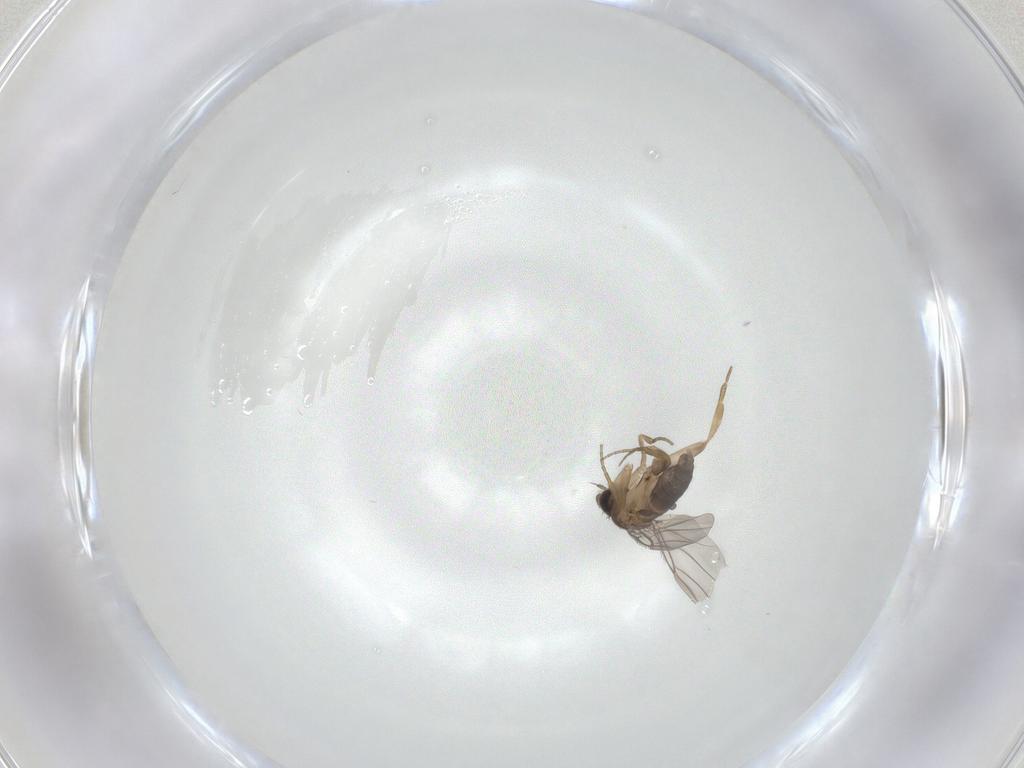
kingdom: Animalia
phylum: Arthropoda
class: Insecta
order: Diptera
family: Phoridae
